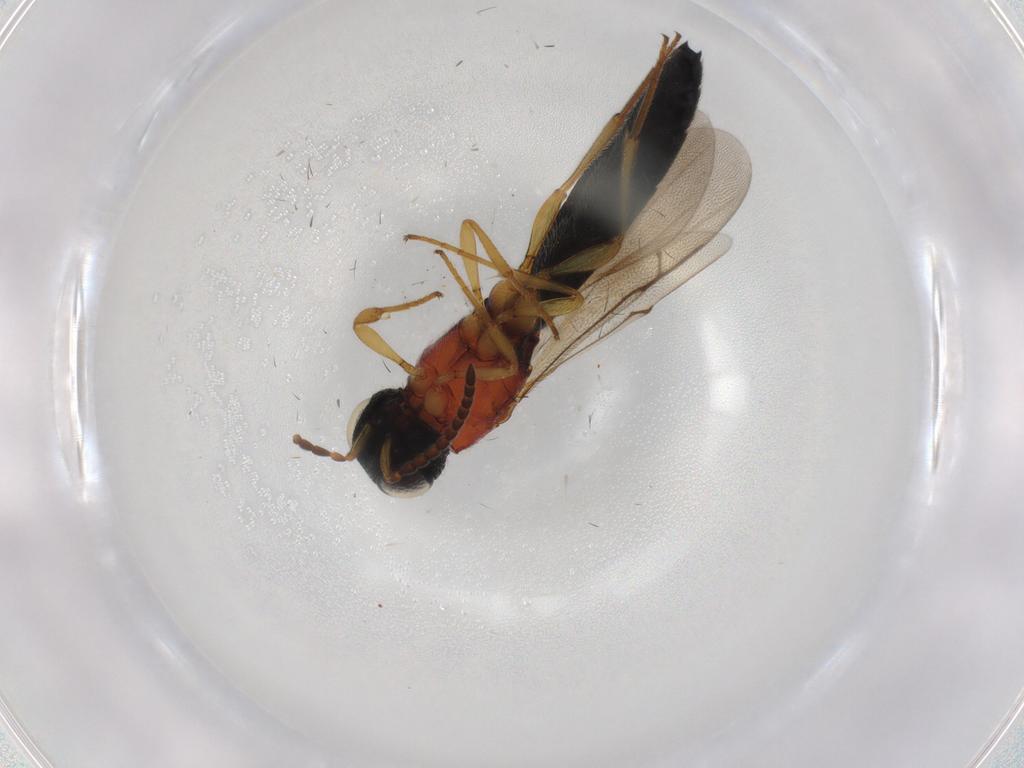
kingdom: Animalia
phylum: Arthropoda
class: Insecta
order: Hymenoptera
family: Scelionidae
